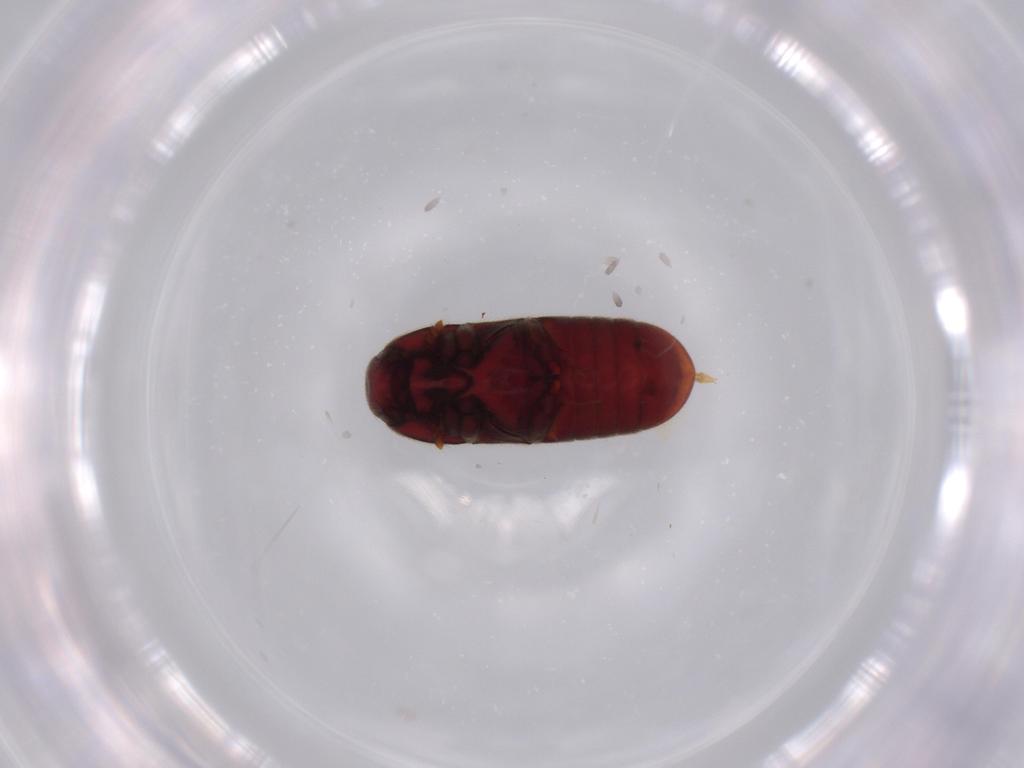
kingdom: Animalia
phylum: Arthropoda
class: Insecta
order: Coleoptera
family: Throscidae
